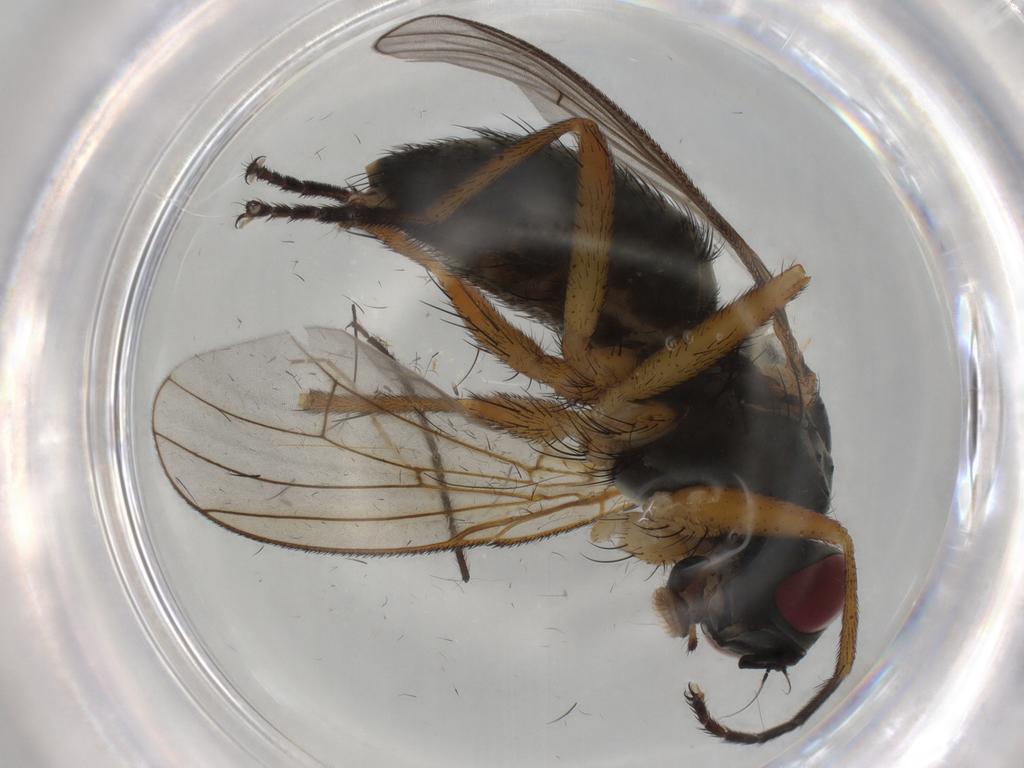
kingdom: Animalia
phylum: Arthropoda
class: Insecta
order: Diptera
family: Muscidae
